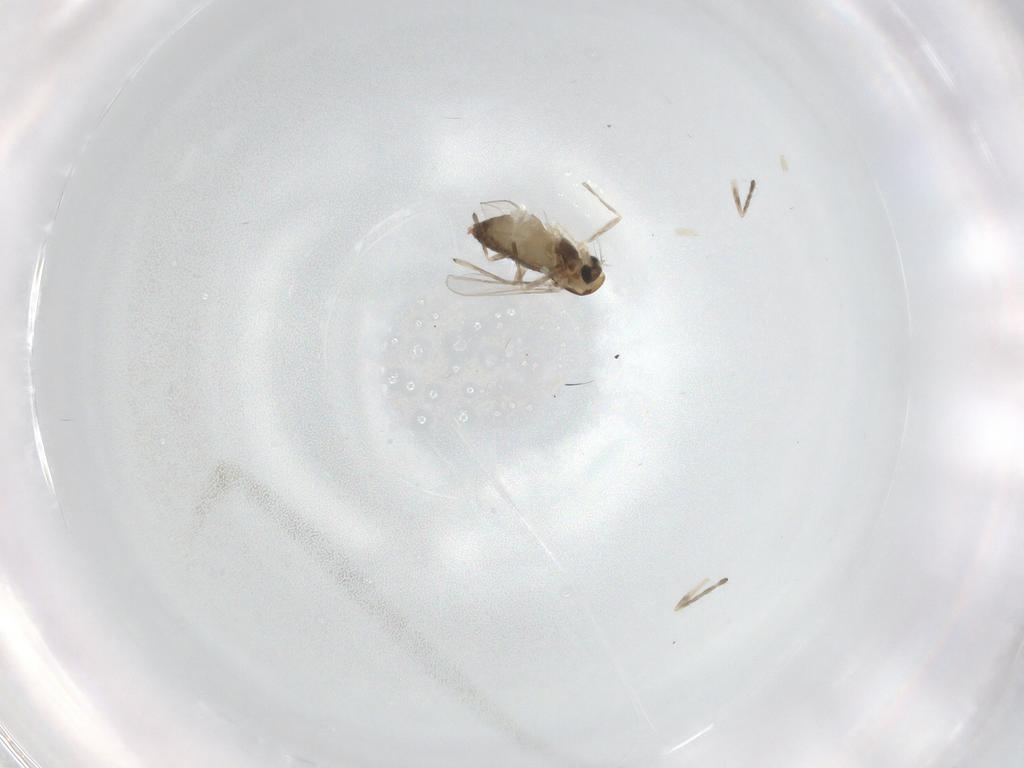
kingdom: Animalia
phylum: Arthropoda
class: Insecta
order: Diptera
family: Chironomidae
